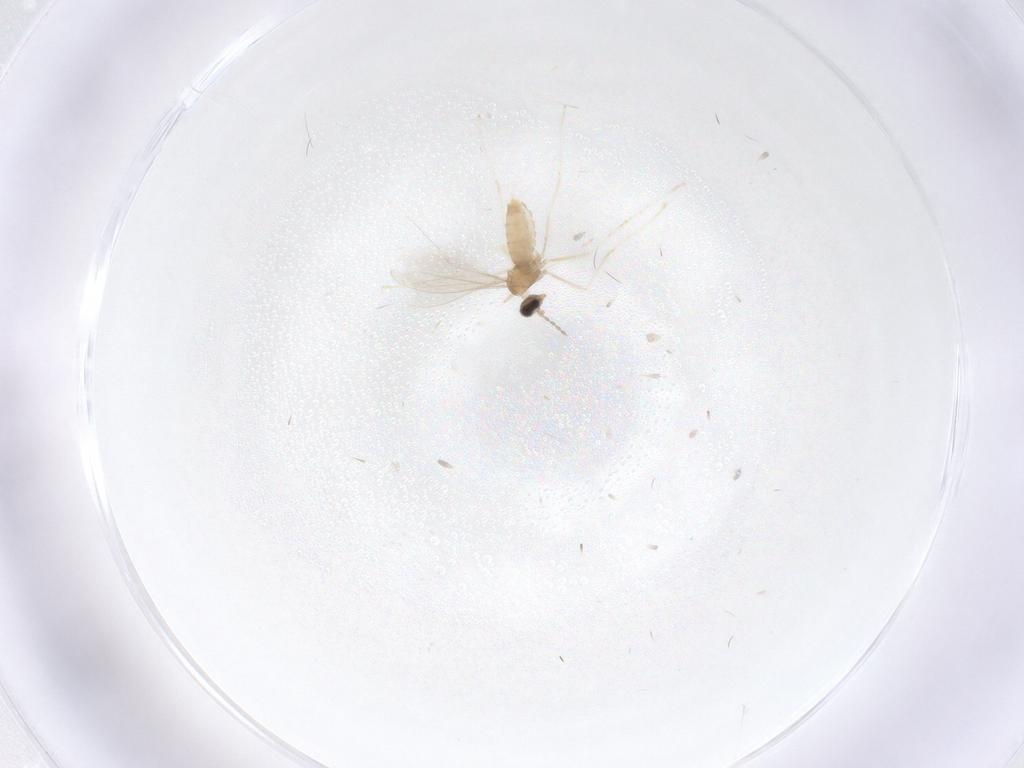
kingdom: Animalia
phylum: Arthropoda
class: Insecta
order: Diptera
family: Cecidomyiidae
